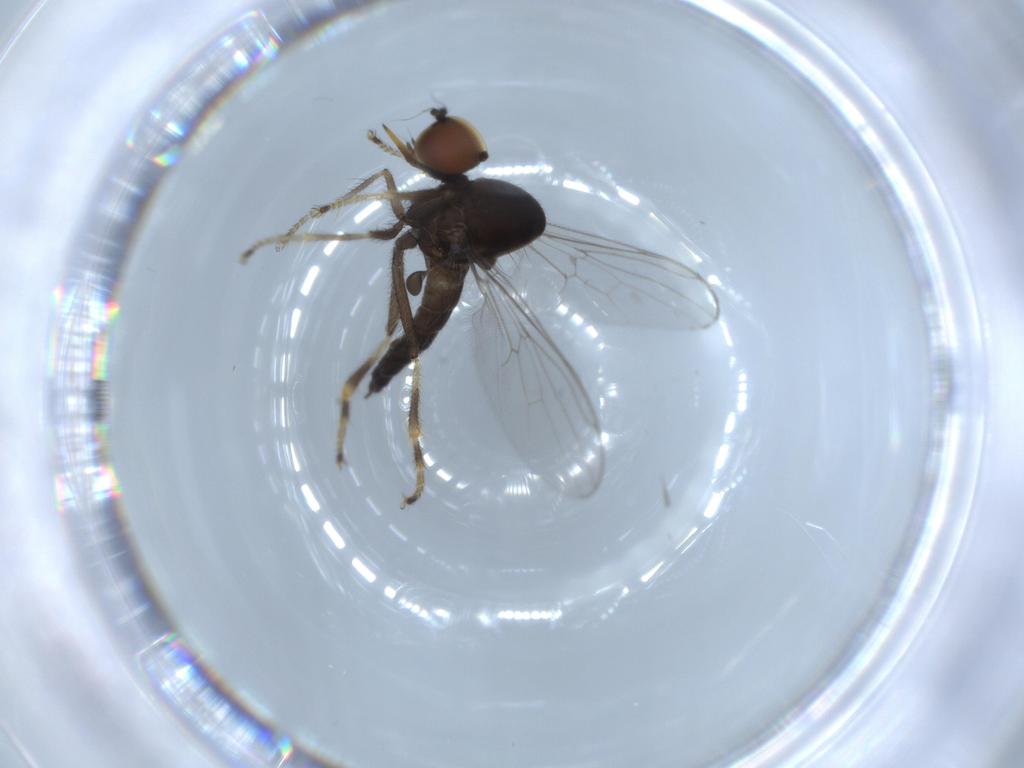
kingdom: Animalia
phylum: Arthropoda
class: Insecta
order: Diptera
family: Hybotidae
